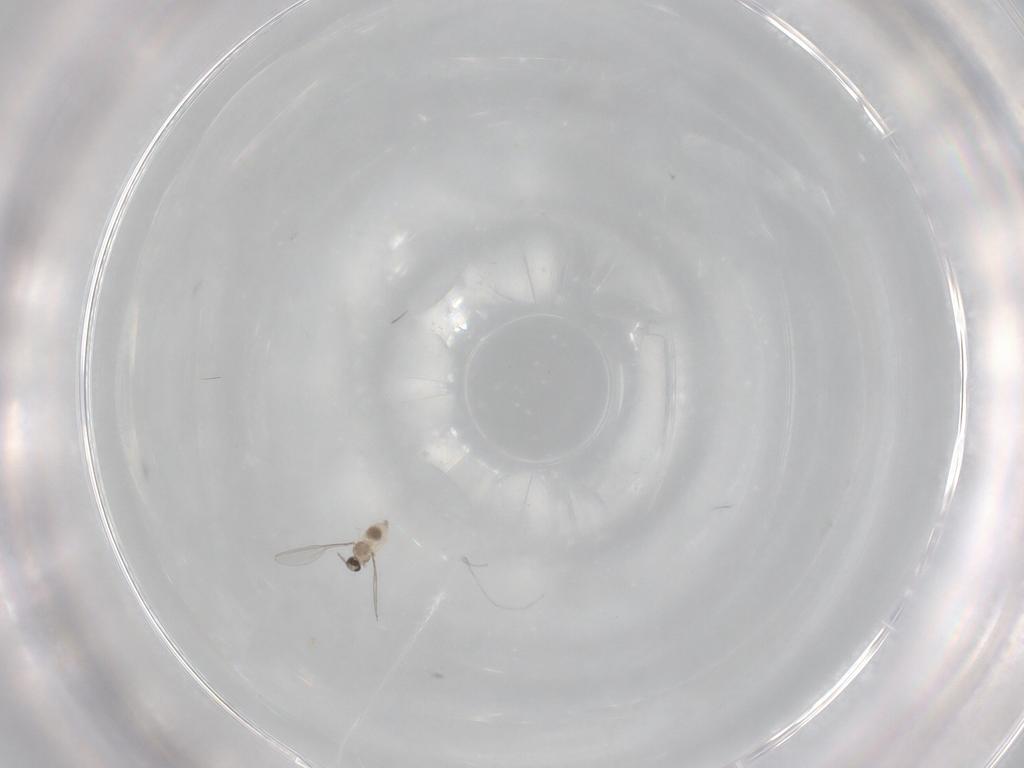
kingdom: Animalia
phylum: Arthropoda
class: Insecta
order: Diptera
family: Cecidomyiidae
